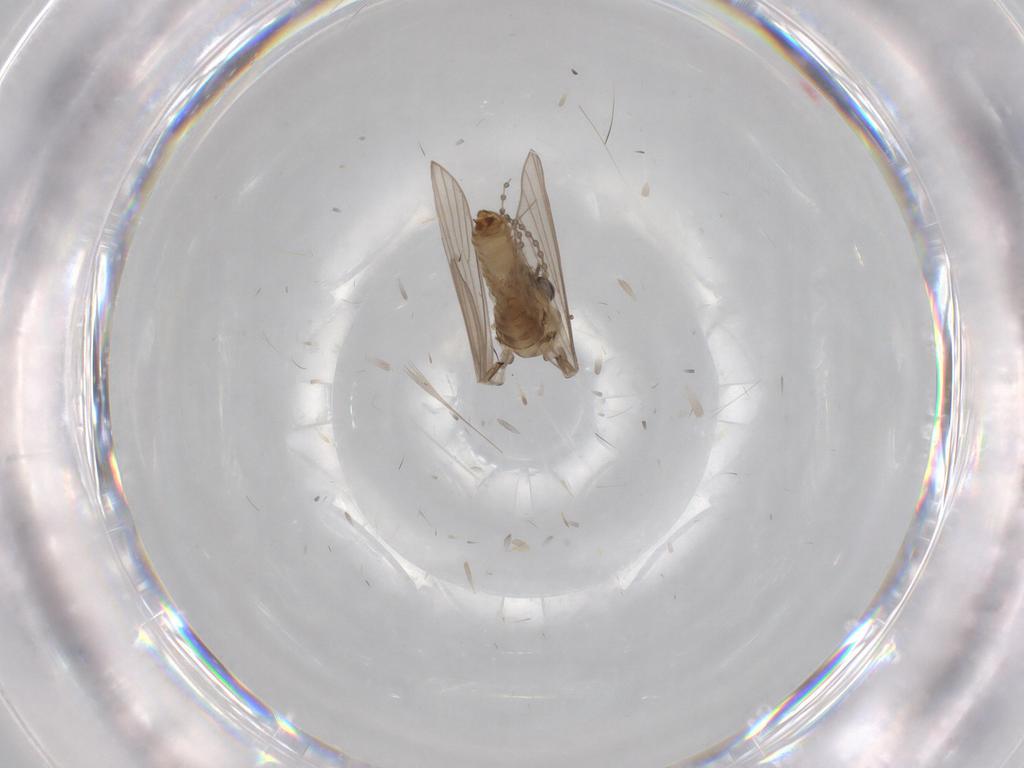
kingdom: Animalia
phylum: Arthropoda
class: Insecta
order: Diptera
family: Psychodidae
